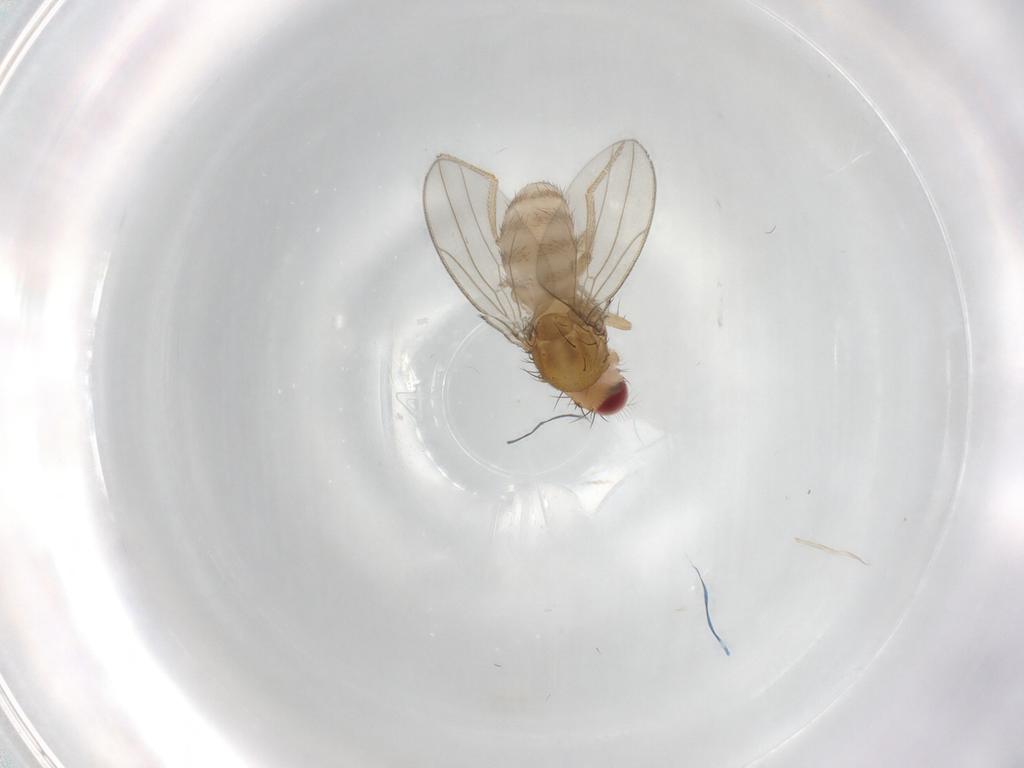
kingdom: Animalia
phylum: Arthropoda
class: Insecta
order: Diptera
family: Drosophilidae
